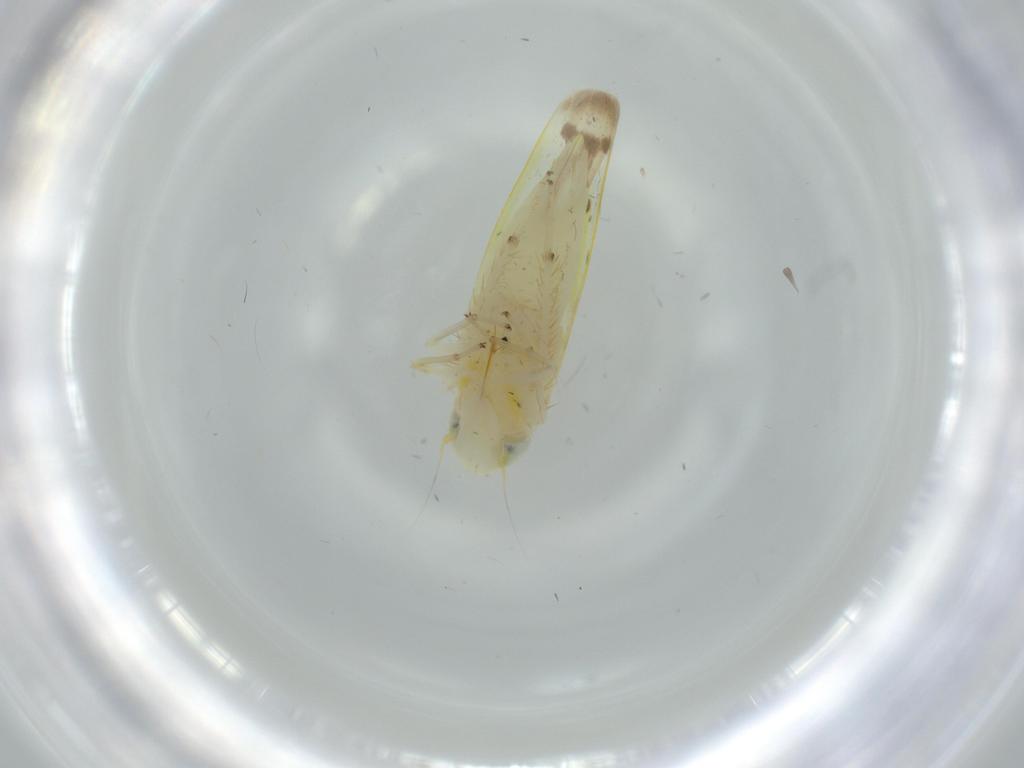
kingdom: Animalia
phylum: Arthropoda
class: Insecta
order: Hemiptera
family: Cicadellidae
